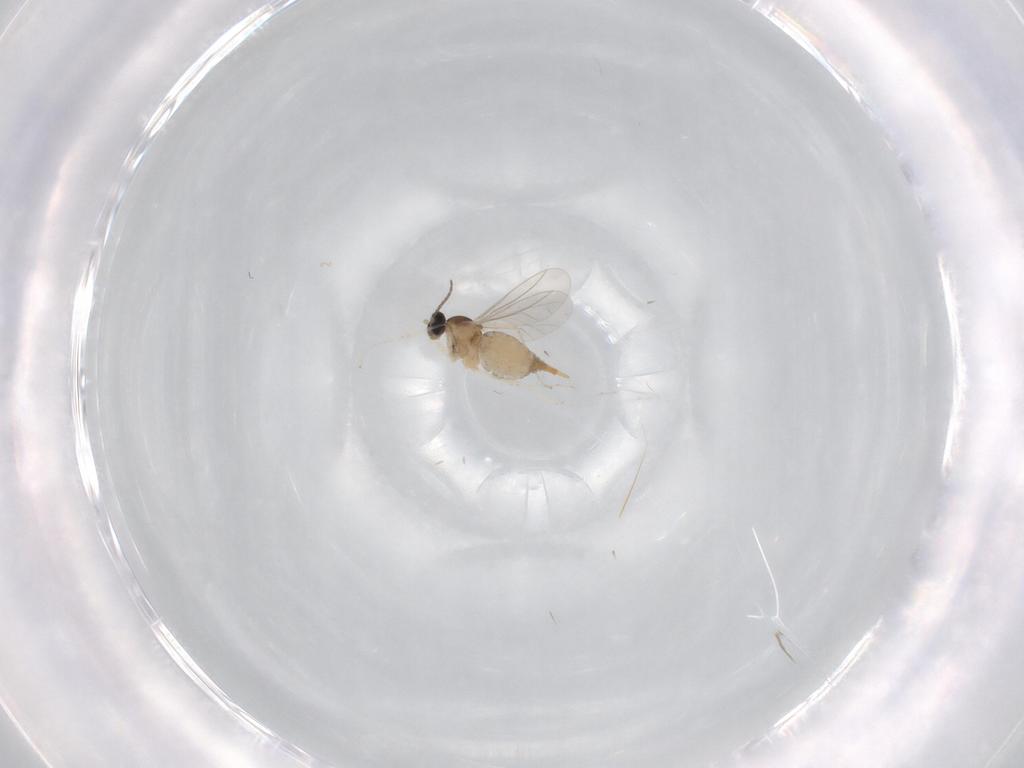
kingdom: Animalia
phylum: Arthropoda
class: Insecta
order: Diptera
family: Cecidomyiidae
